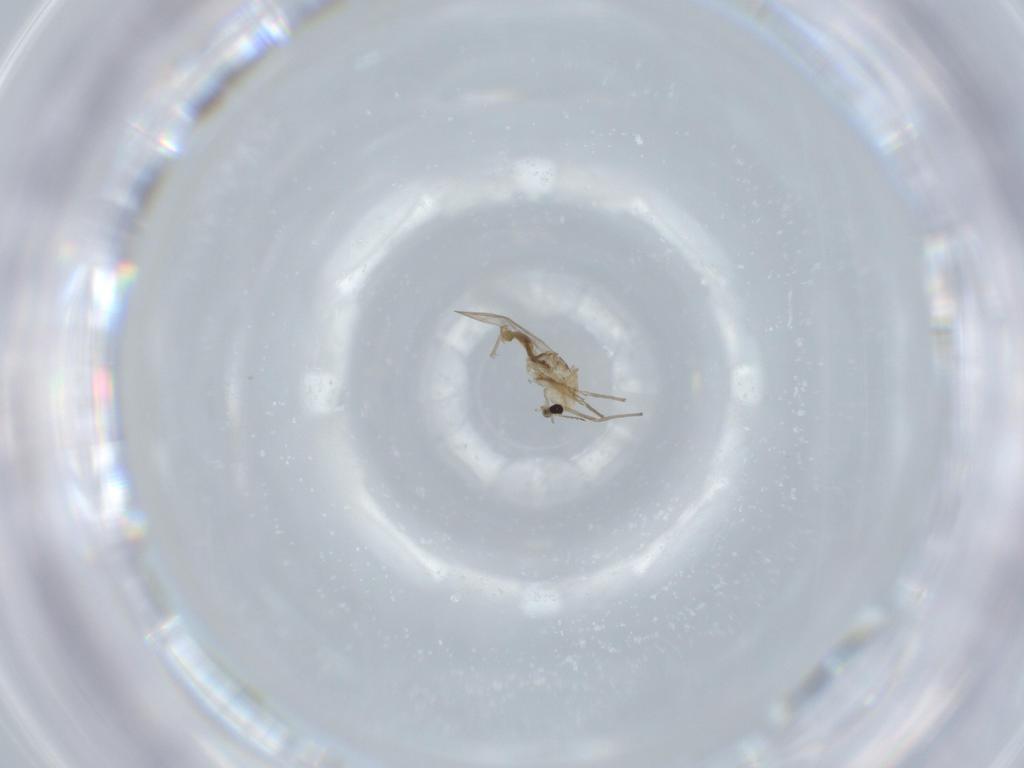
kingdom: Animalia
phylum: Arthropoda
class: Insecta
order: Diptera
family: Chironomidae
